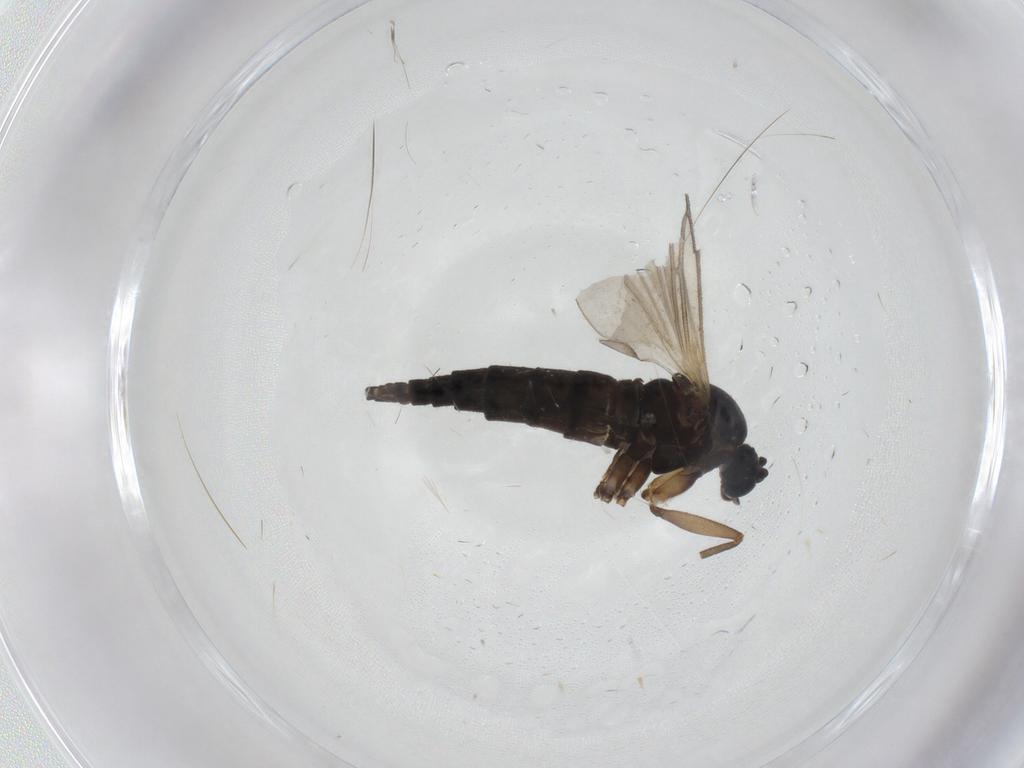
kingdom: Animalia
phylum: Arthropoda
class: Insecta
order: Diptera
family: Sciaridae
